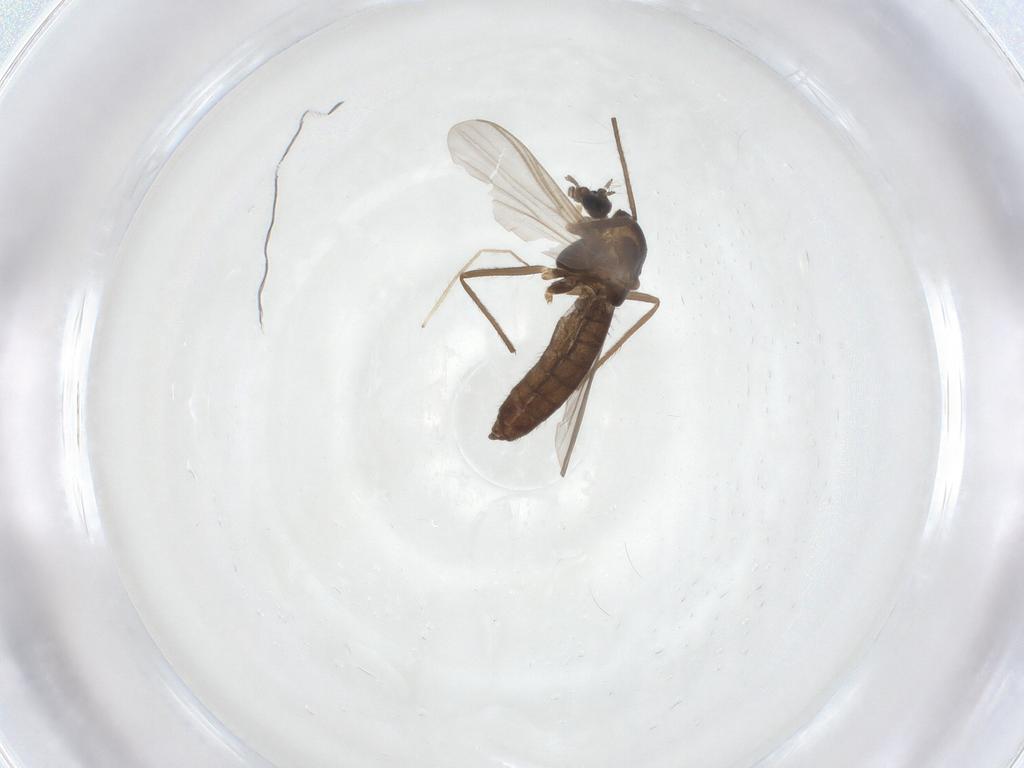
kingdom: Animalia
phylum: Arthropoda
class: Insecta
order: Diptera
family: Chironomidae
